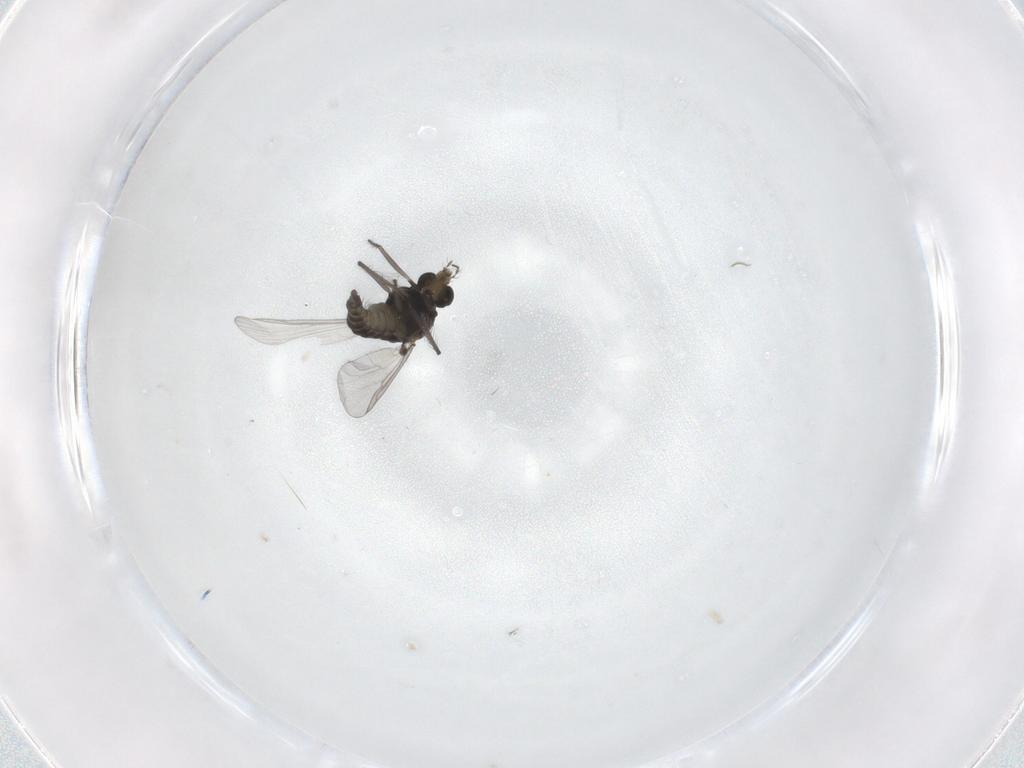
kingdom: Animalia
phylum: Arthropoda
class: Insecta
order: Diptera
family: Chironomidae
